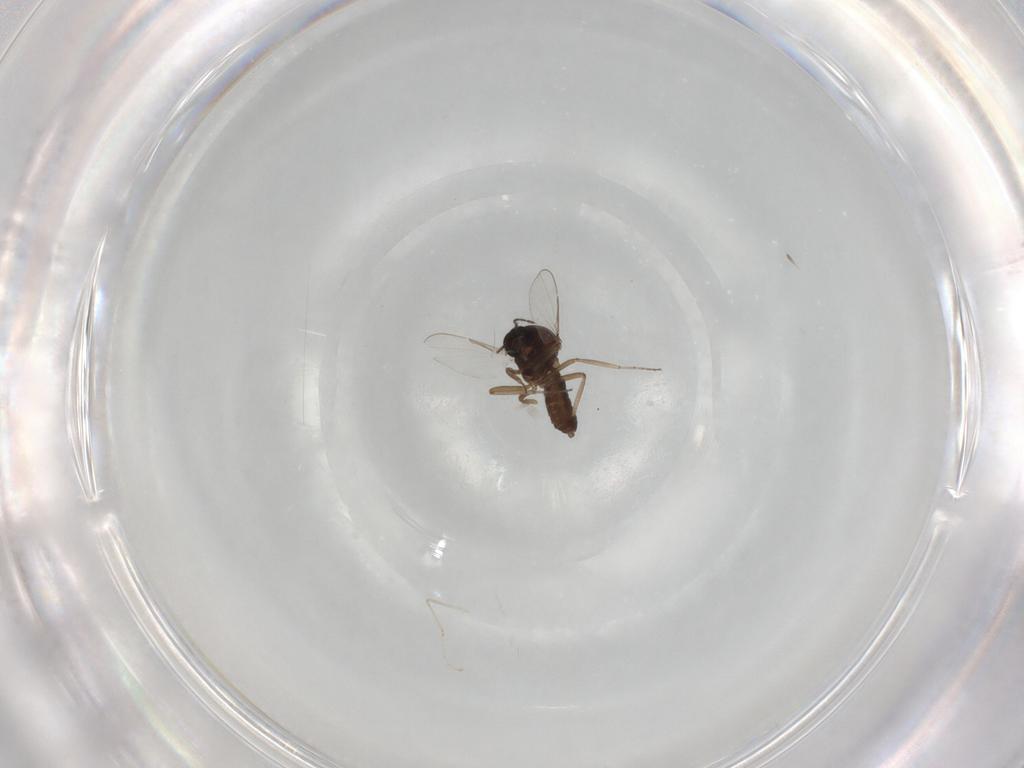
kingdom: Animalia
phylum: Arthropoda
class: Insecta
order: Diptera
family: Ceratopogonidae
